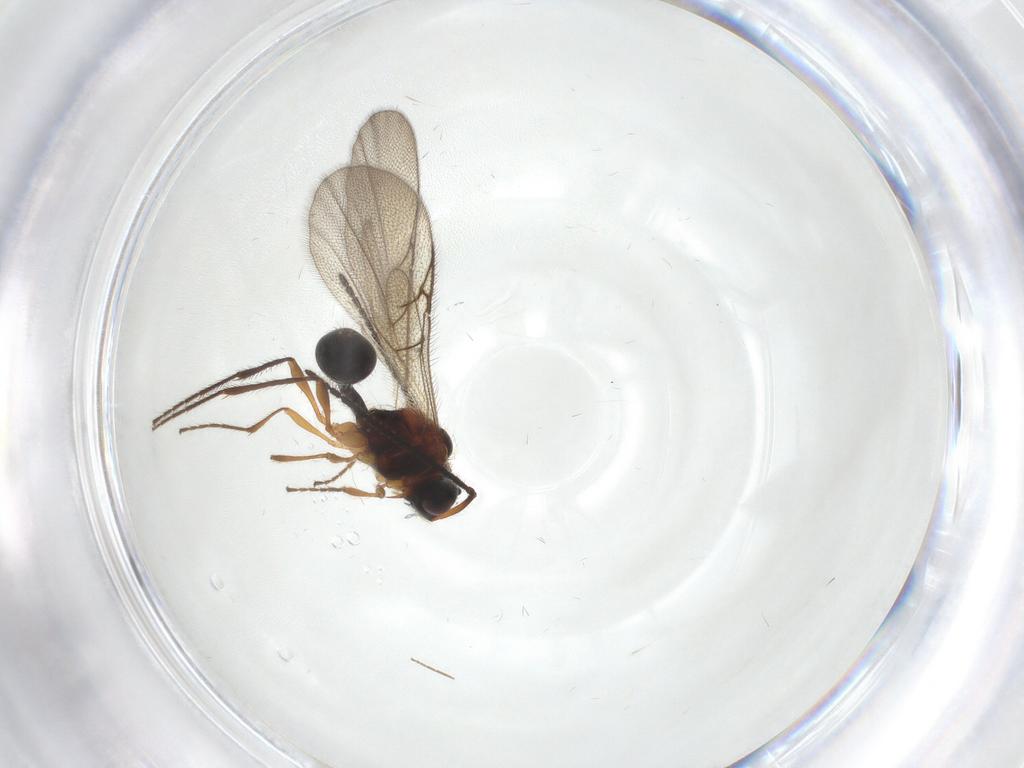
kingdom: Animalia
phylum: Arthropoda
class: Insecta
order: Hymenoptera
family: Diapriidae
